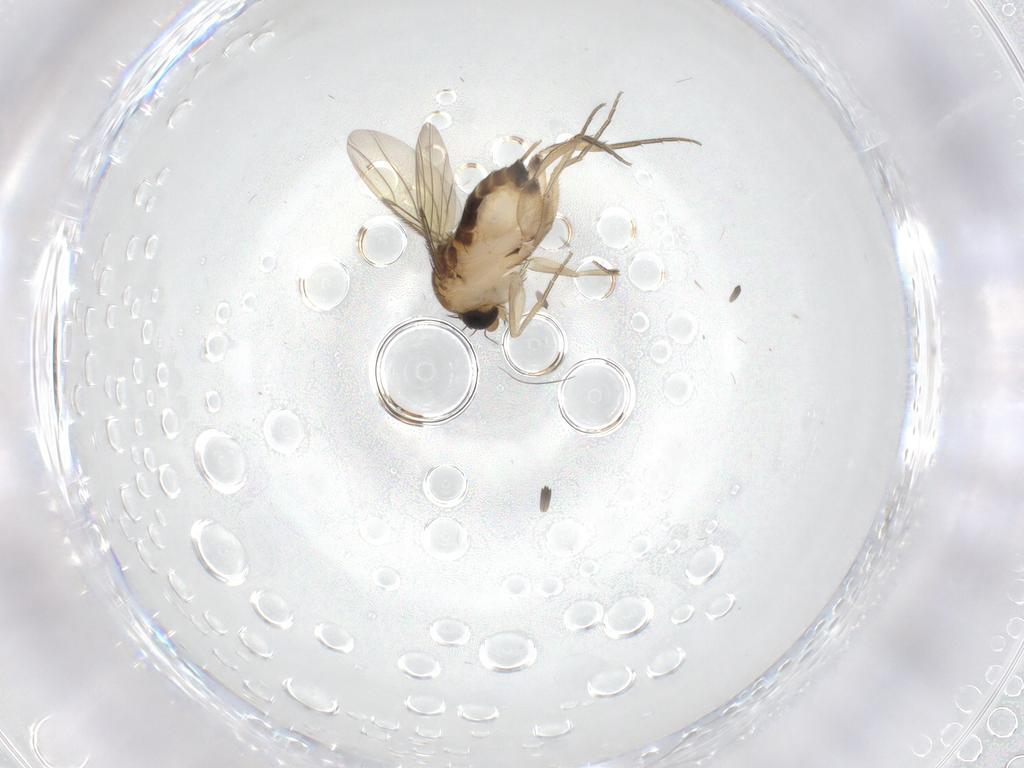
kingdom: Animalia
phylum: Arthropoda
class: Insecta
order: Diptera
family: Phoridae
